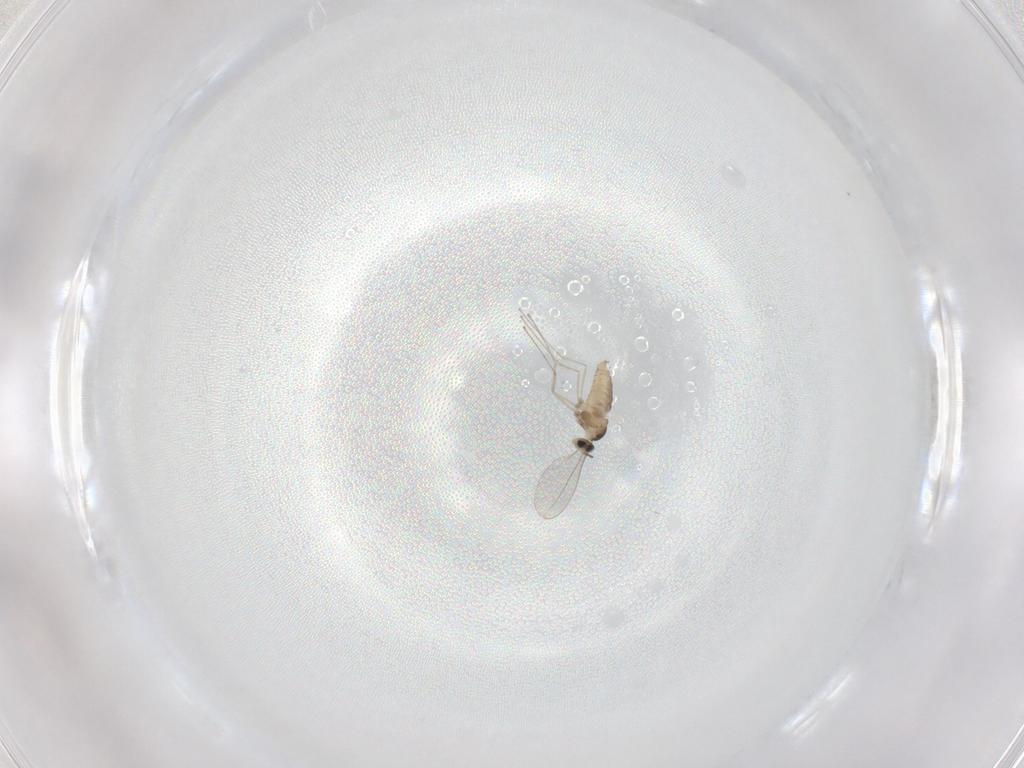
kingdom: Animalia
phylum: Arthropoda
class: Insecta
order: Diptera
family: Cecidomyiidae
